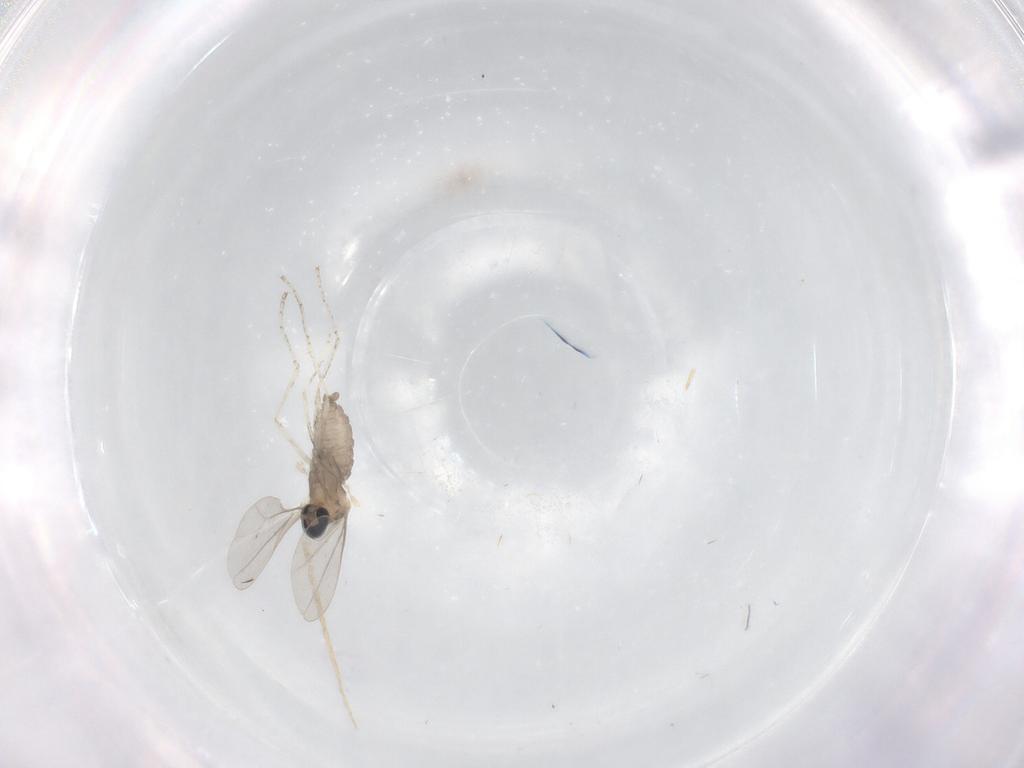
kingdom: Animalia
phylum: Arthropoda
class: Insecta
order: Diptera
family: Cecidomyiidae
